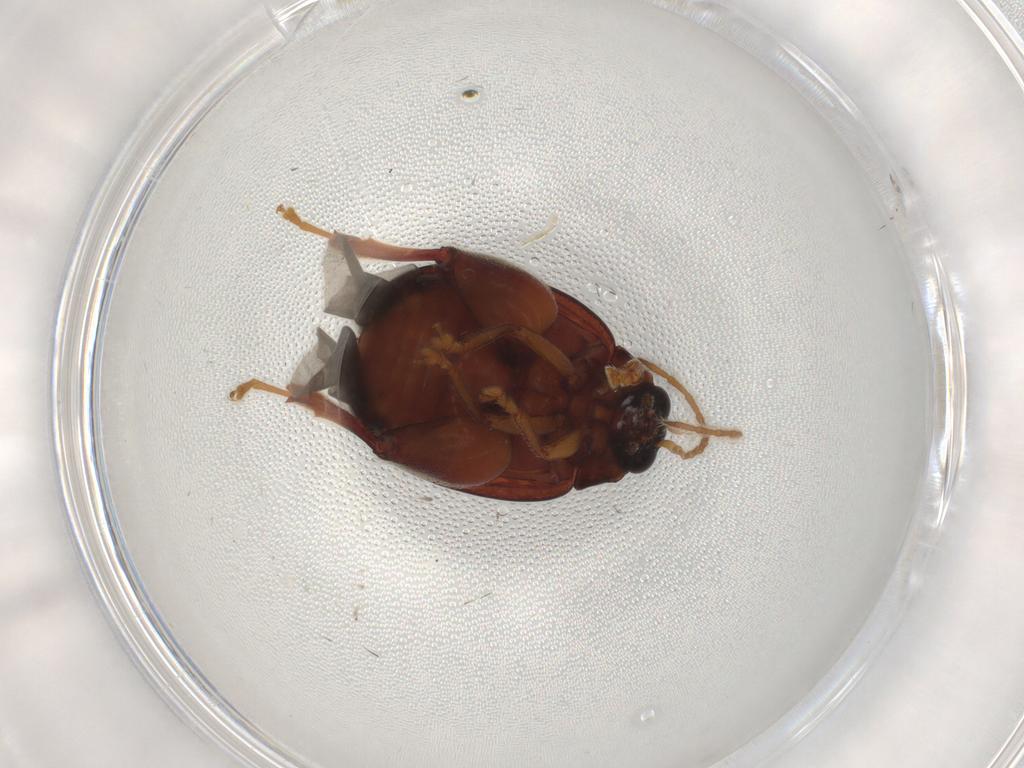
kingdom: Animalia
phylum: Arthropoda
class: Insecta
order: Coleoptera
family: Chrysomelidae
